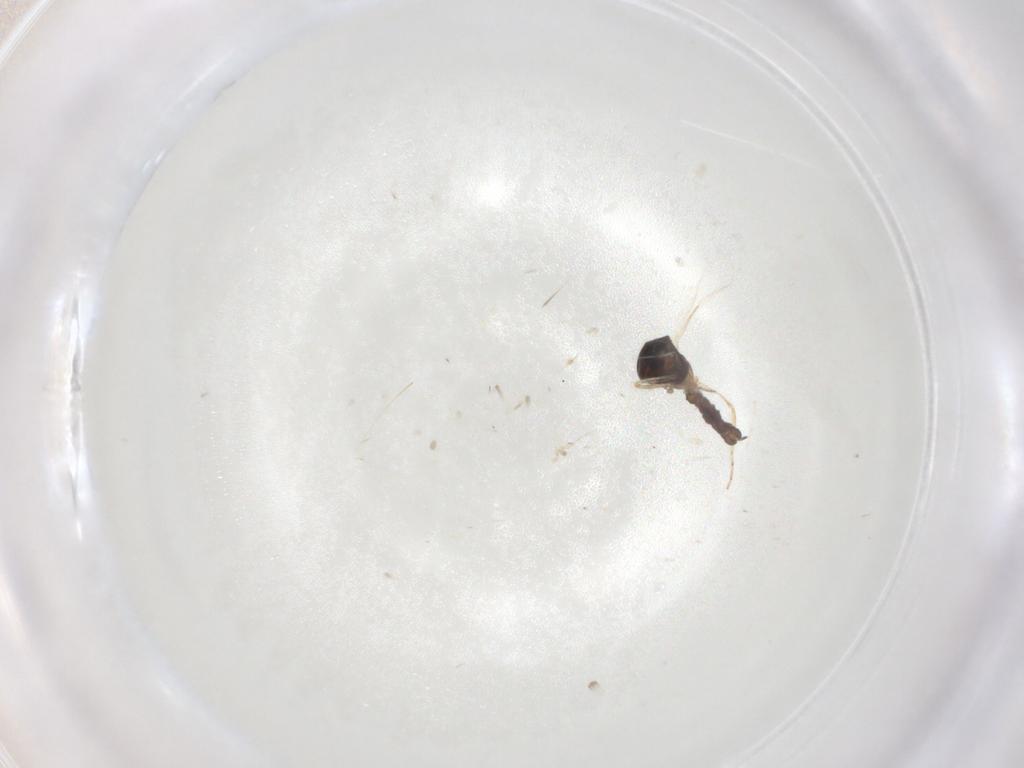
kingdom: Animalia
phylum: Arthropoda
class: Insecta
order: Diptera
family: Ceratopogonidae
